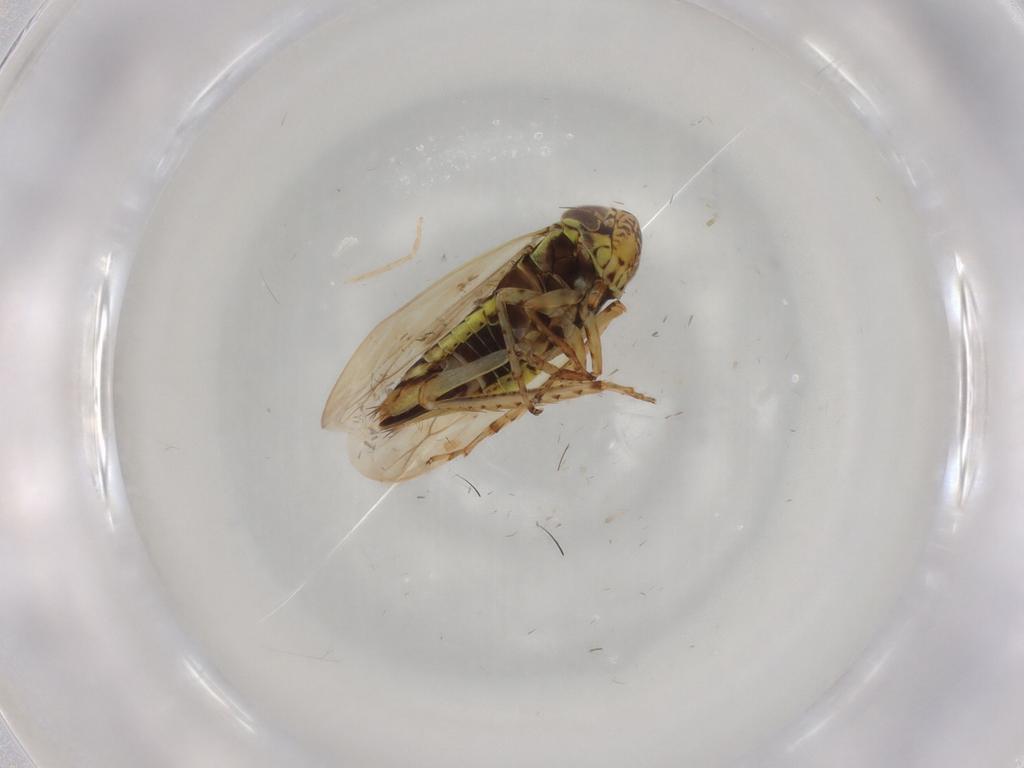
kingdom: Animalia
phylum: Arthropoda
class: Insecta
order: Hemiptera
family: Cicadellidae
